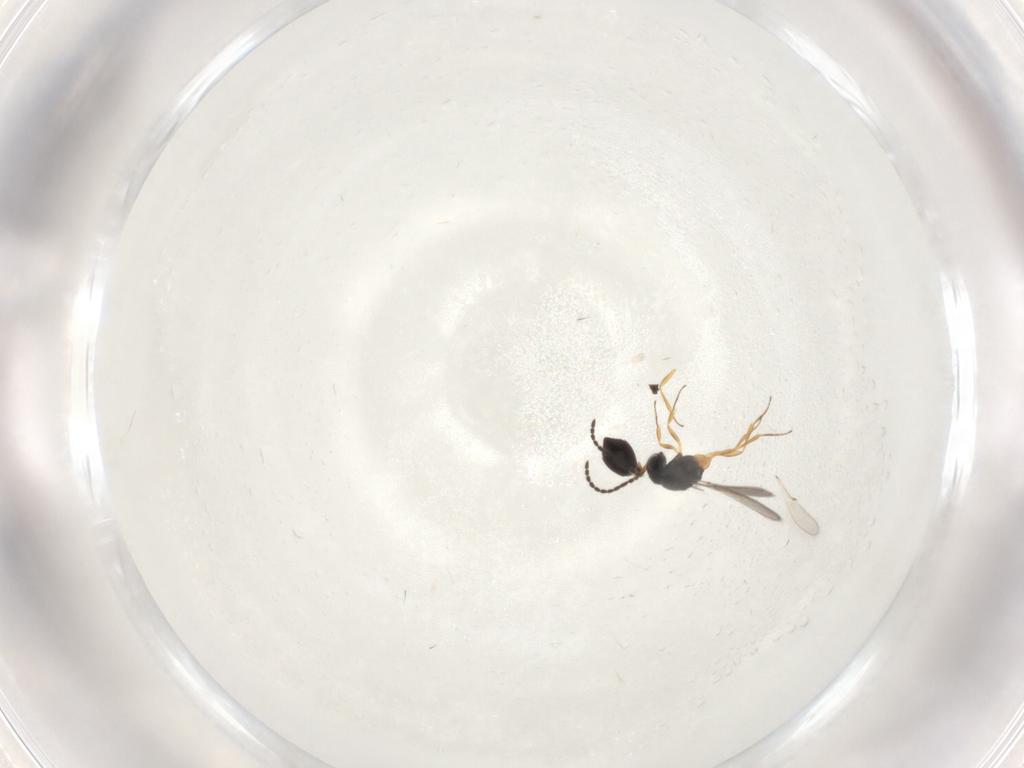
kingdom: Animalia
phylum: Arthropoda
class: Insecta
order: Hymenoptera
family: Scelionidae
